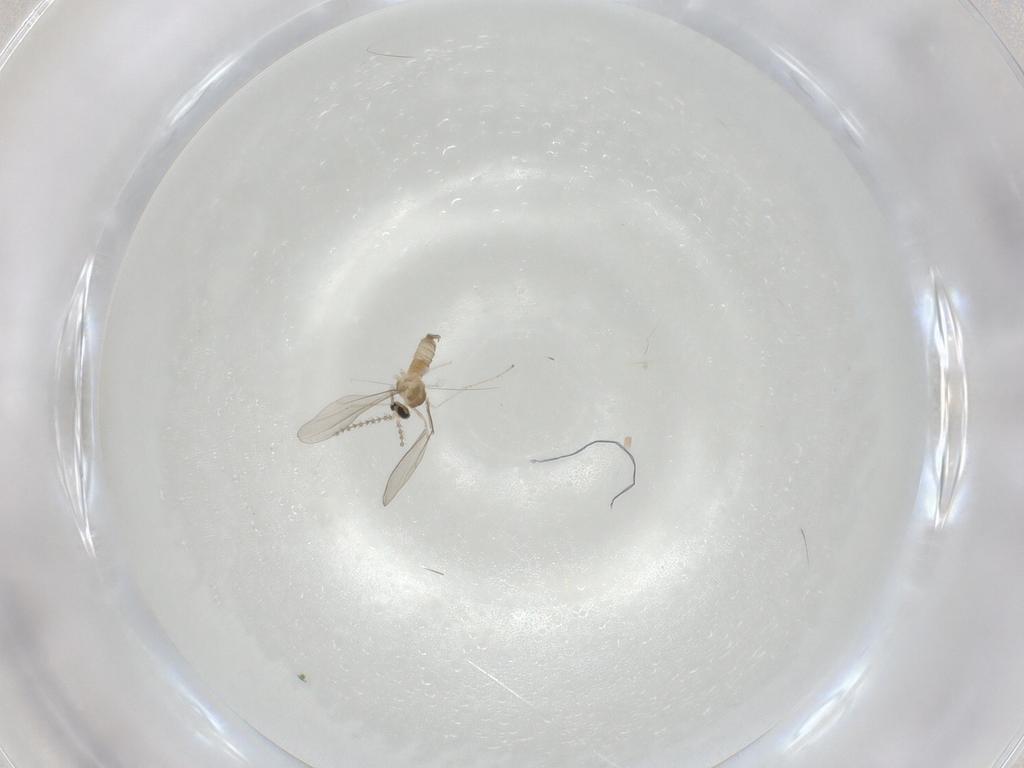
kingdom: Animalia
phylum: Arthropoda
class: Insecta
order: Diptera
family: Cecidomyiidae
